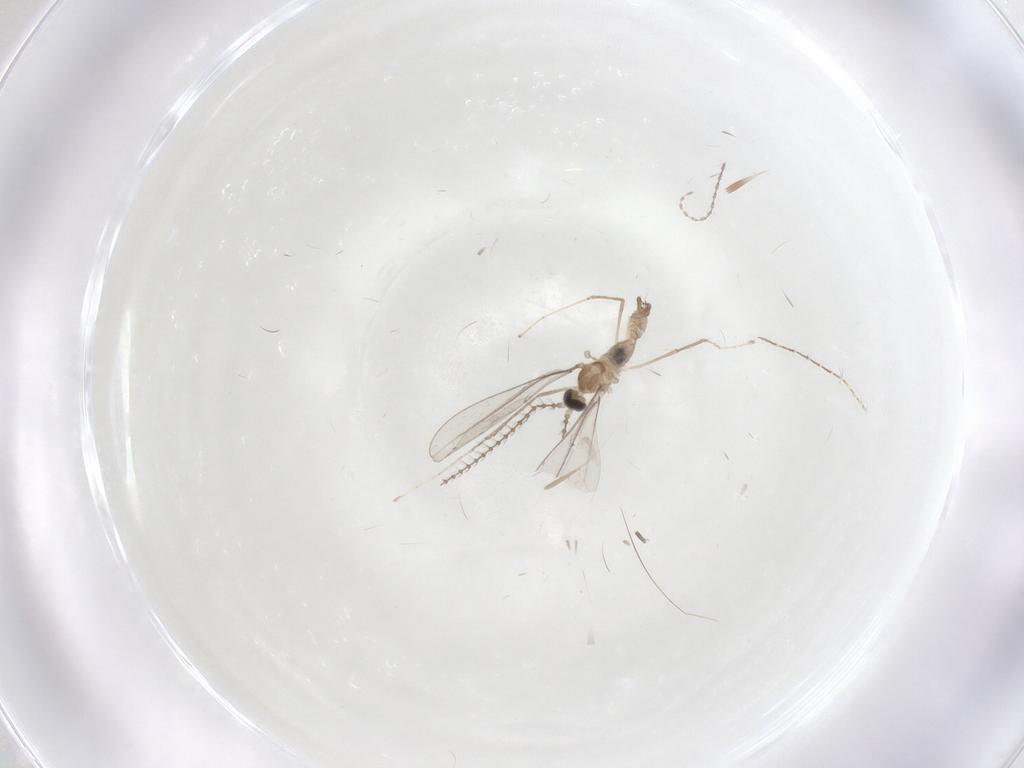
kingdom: Animalia
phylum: Arthropoda
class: Insecta
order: Diptera
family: Cecidomyiidae
